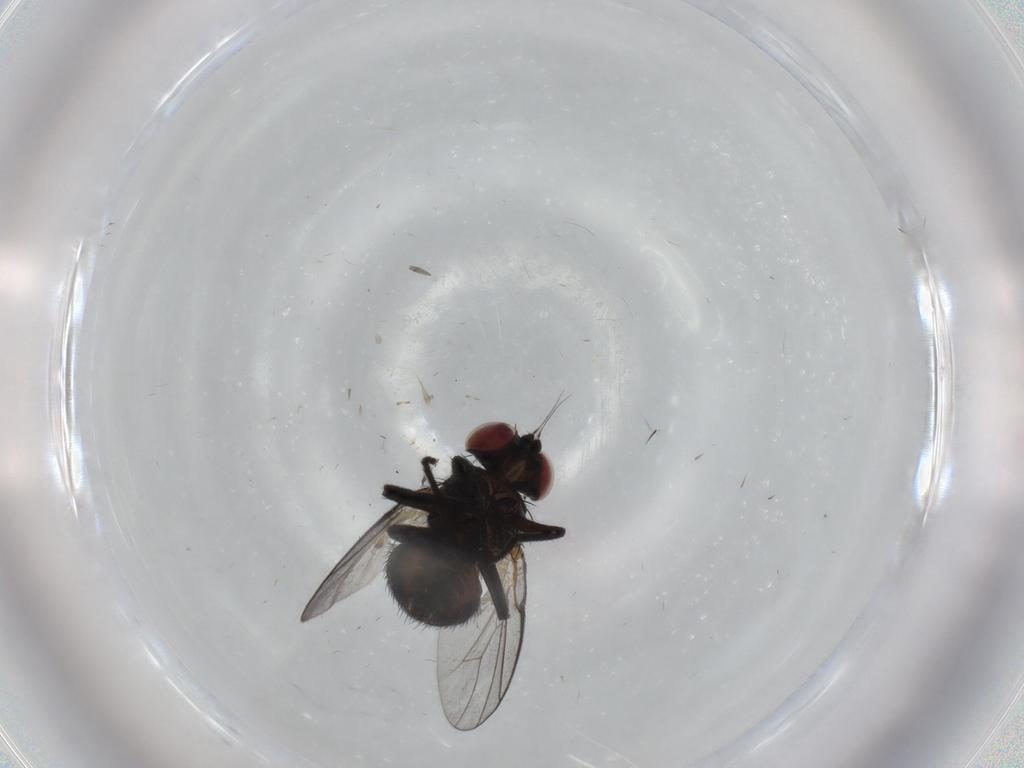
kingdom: Animalia
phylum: Arthropoda
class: Insecta
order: Diptera
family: Agromyzidae
